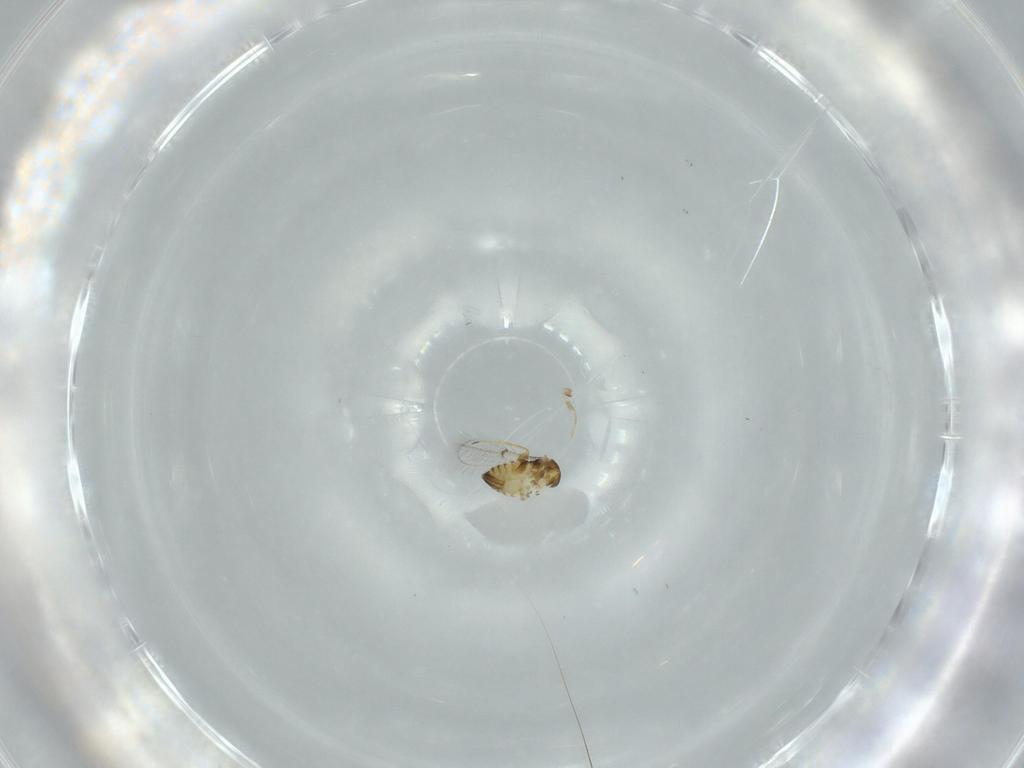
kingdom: Animalia
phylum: Arthropoda
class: Insecta
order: Hymenoptera
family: Trichogrammatidae
